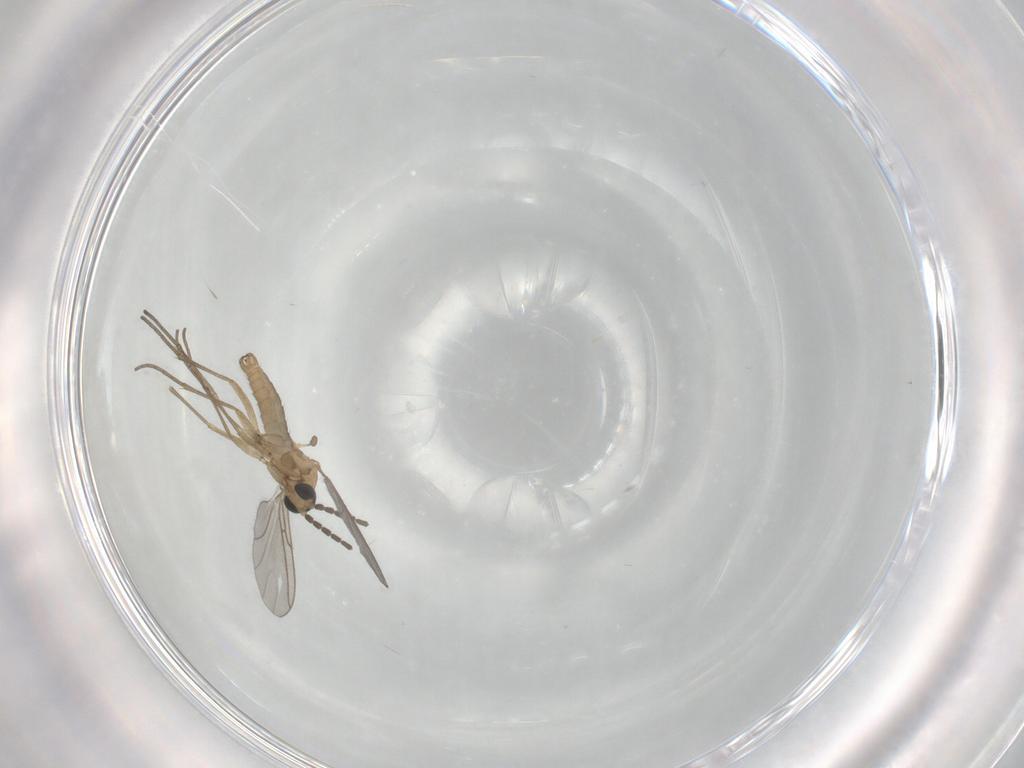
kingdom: Animalia
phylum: Arthropoda
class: Insecta
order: Diptera
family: Sciaridae
